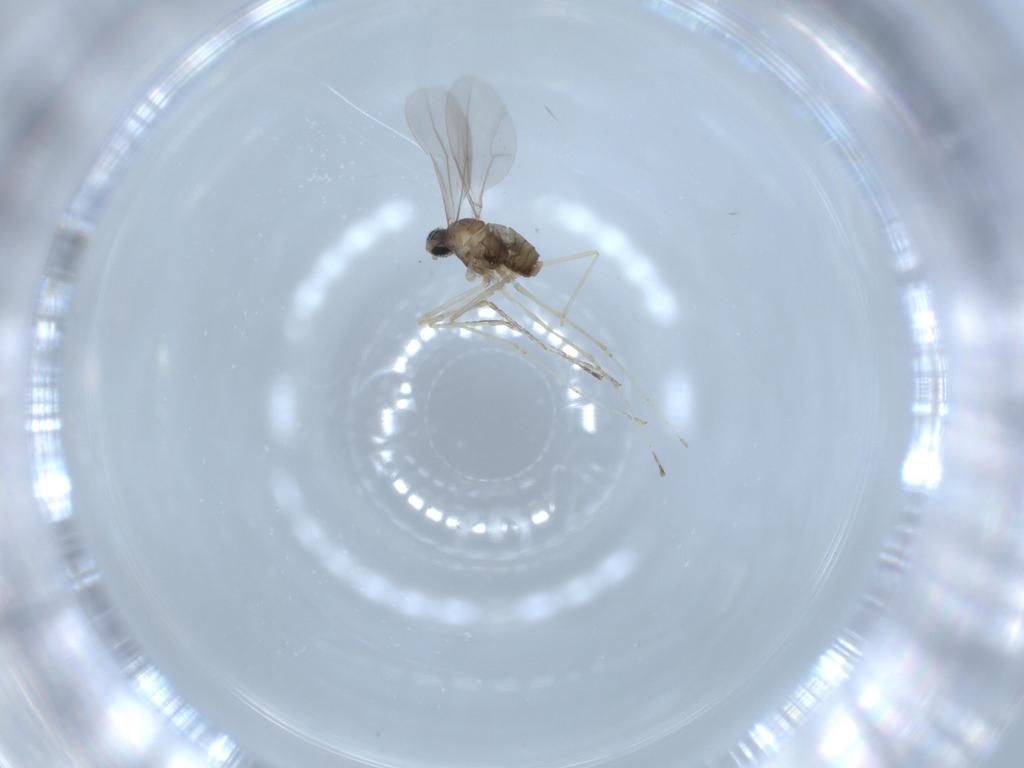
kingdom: Animalia
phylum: Arthropoda
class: Insecta
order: Diptera
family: Cecidomyiidae
